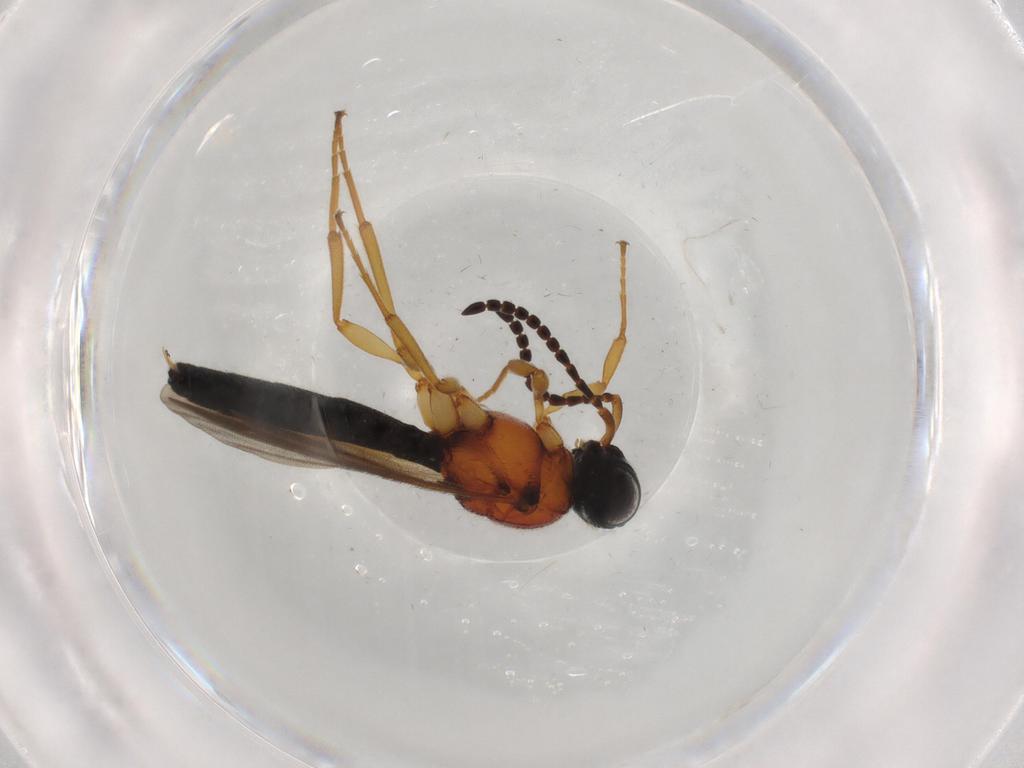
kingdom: Animalia
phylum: Arthropoda
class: Insecta
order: Hymenoptera
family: Scelionidae
